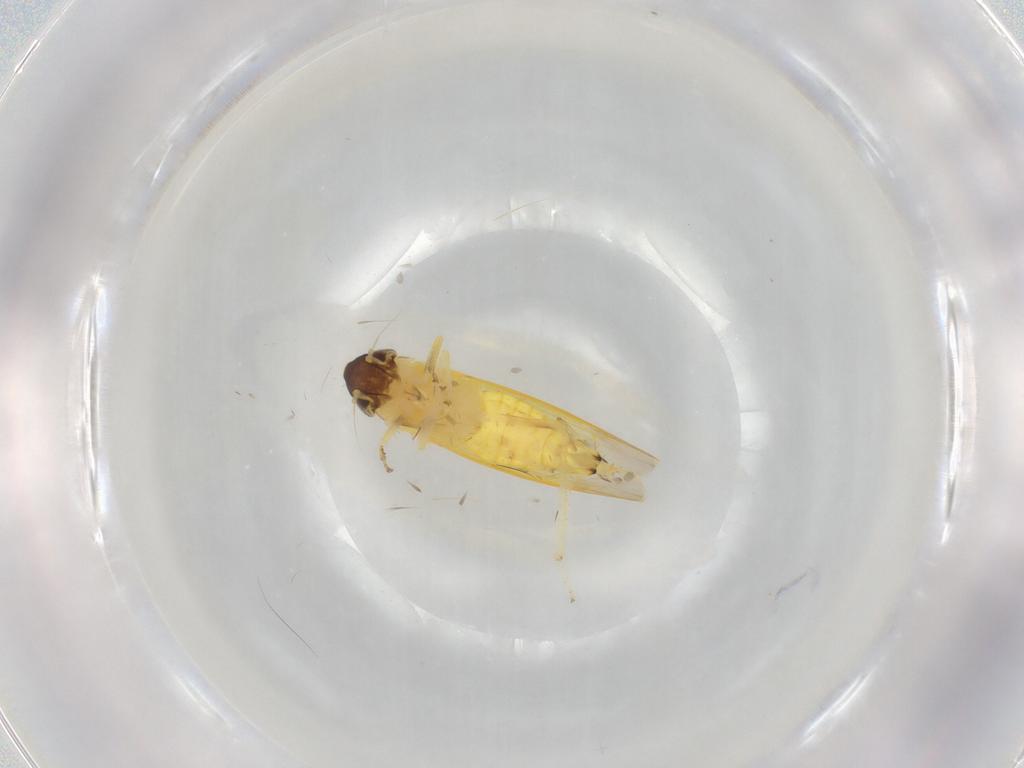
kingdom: Animalia
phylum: Arthropoda
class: Insecta
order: Hemiptera
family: Cicadellidae
